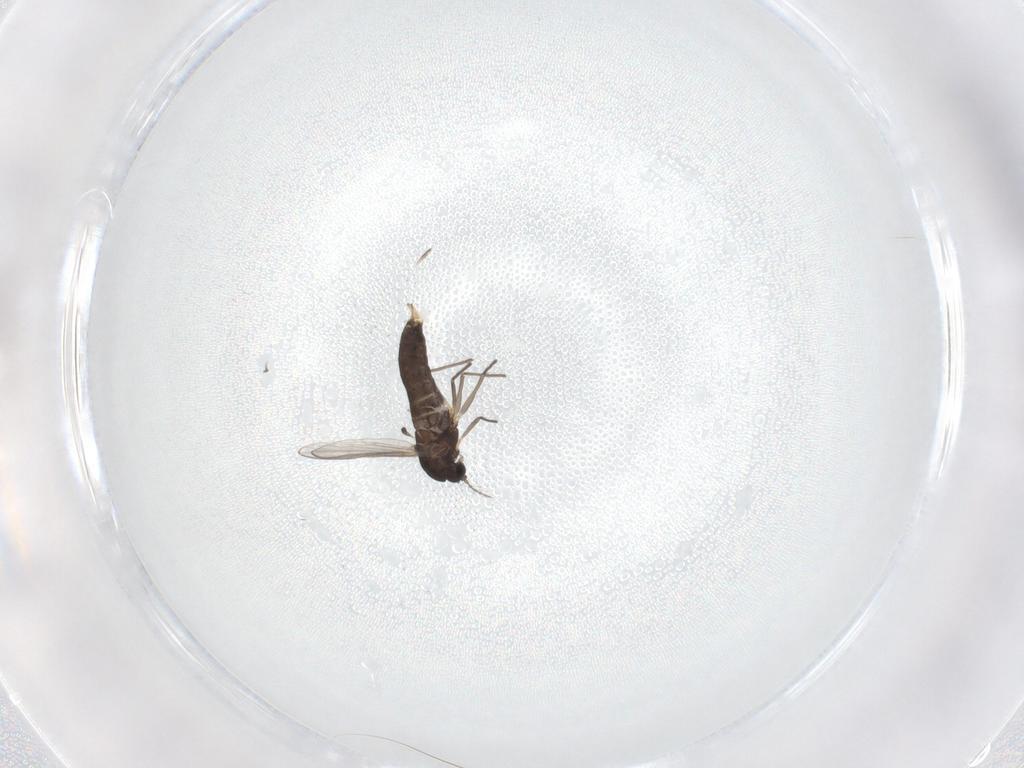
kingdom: Animalia
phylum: Arthropoda
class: Insecta
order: Diptera
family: Chironomidae
